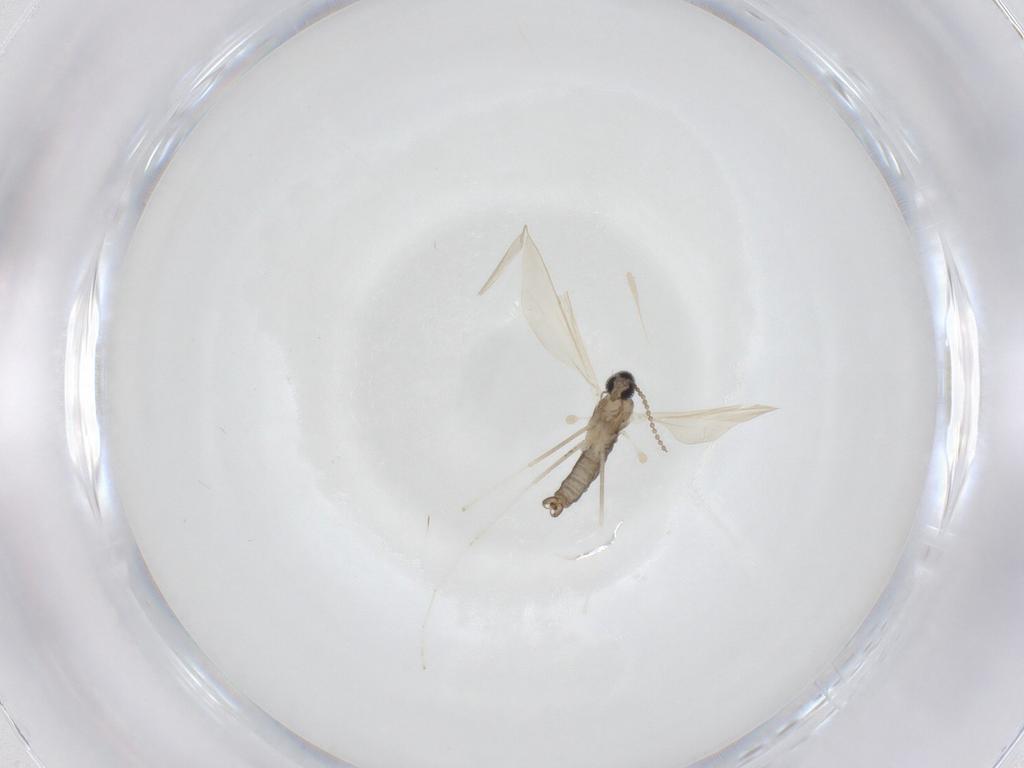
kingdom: Animalia
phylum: Arthropoda
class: Insecta
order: Diptera
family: Cecidomyiidae
